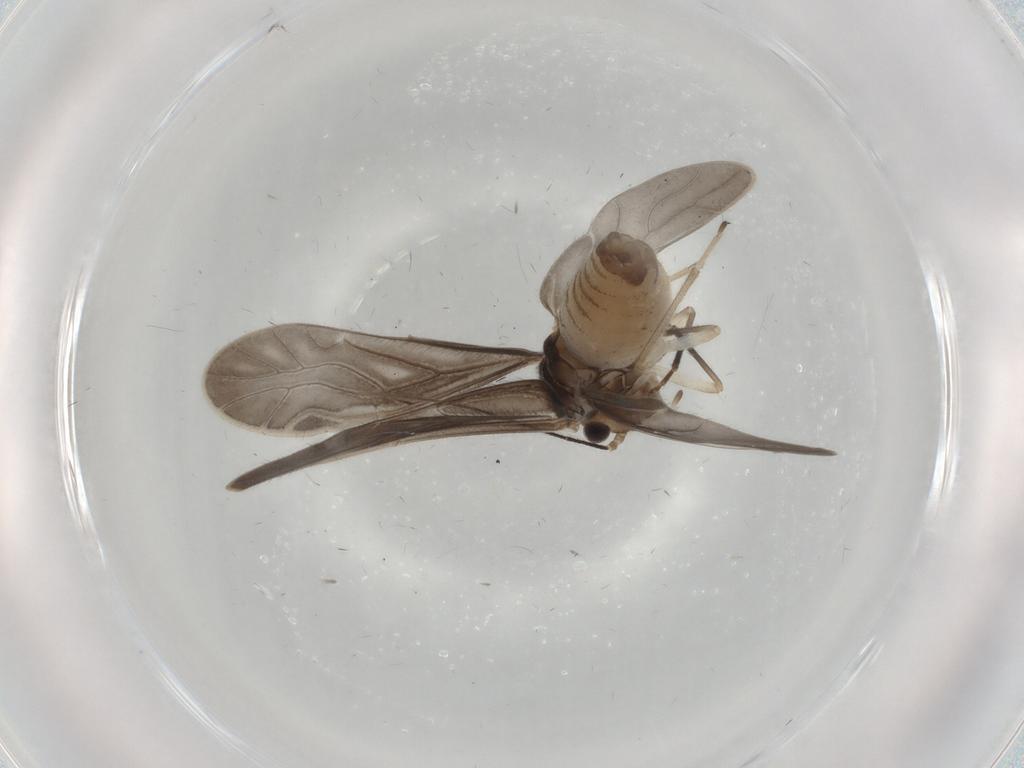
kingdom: Animalia
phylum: Arthropoda
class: Insecta
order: Psocodea
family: Caeciliusidae
